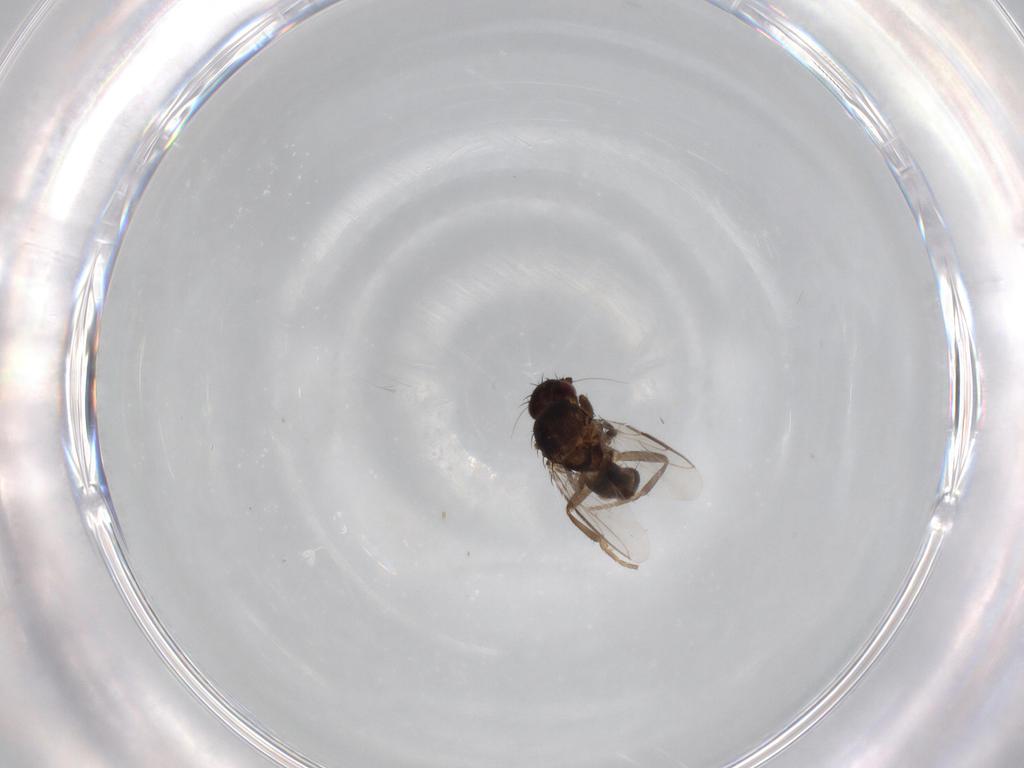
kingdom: Animalia
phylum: Arthropoda
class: Insecta
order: Diptera
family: Sphaeroceridae
